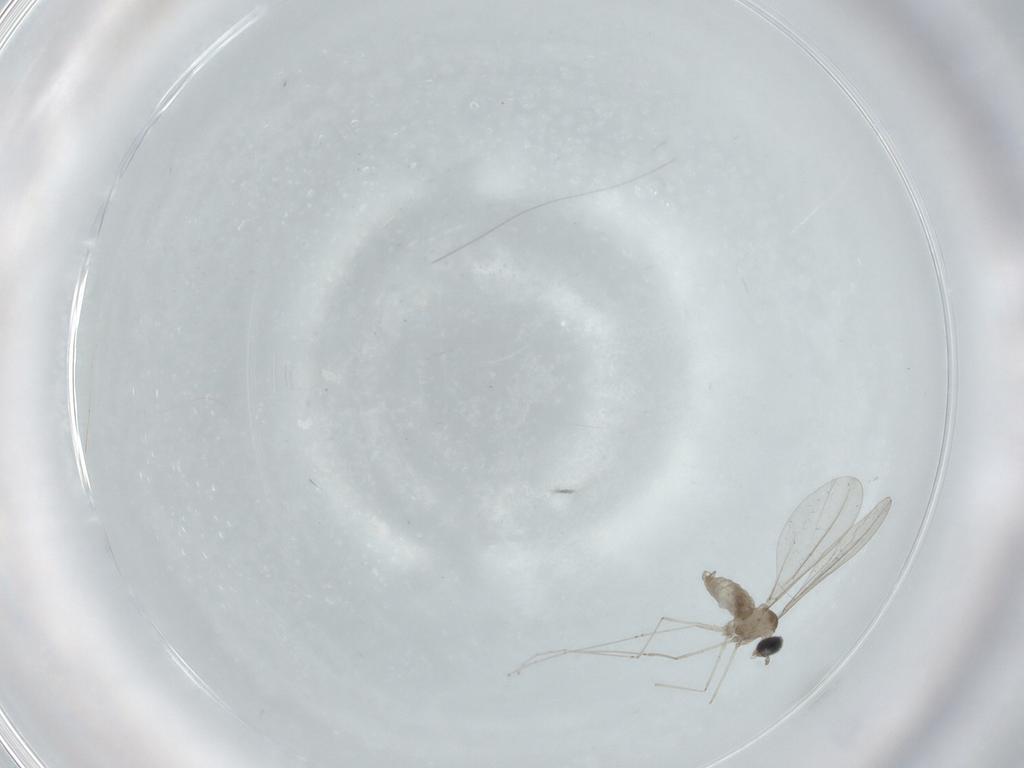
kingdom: Animalia
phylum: Arthropoda
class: Insecta
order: Diptera
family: Cecidomyiidae
